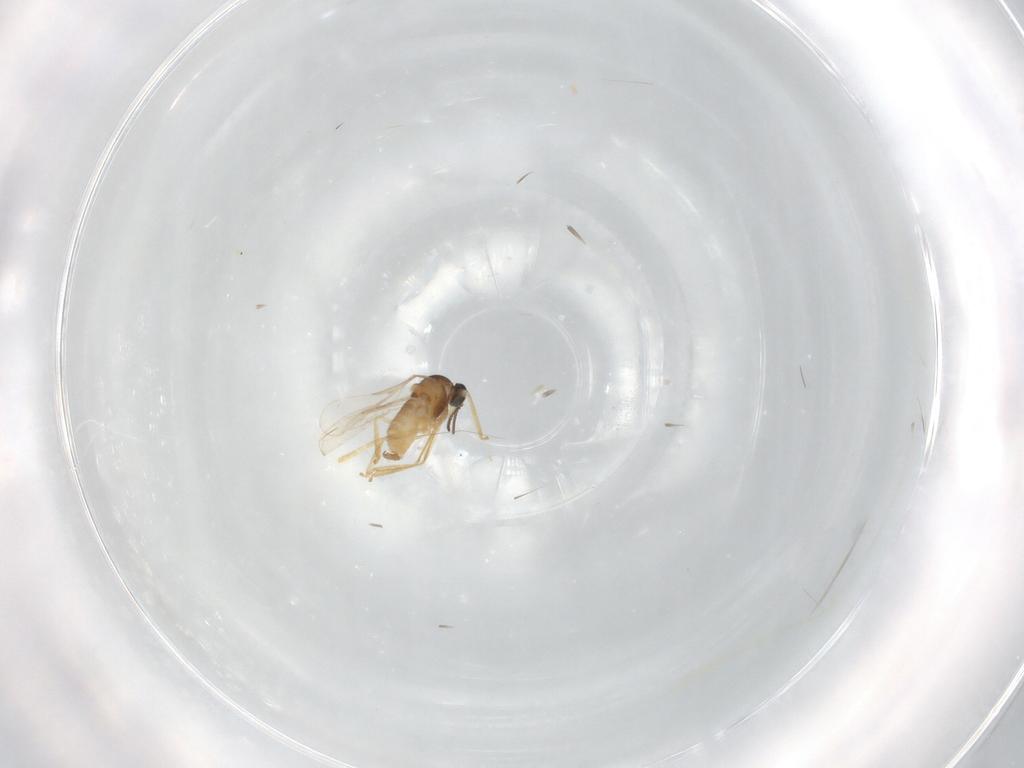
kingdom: Animalia
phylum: Arthropoda
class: Insecta
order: Diptera
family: Cecidomyiidae
